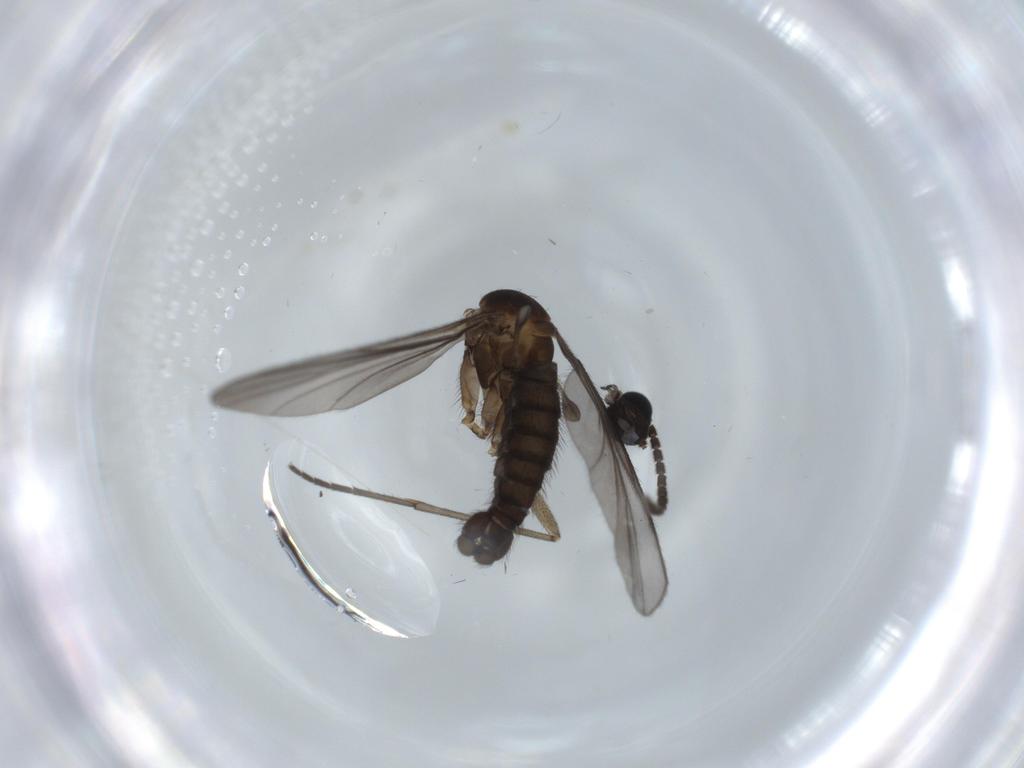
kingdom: Animalia
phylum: Arthropoda
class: Insecta
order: Diptera
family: Sciaridae
